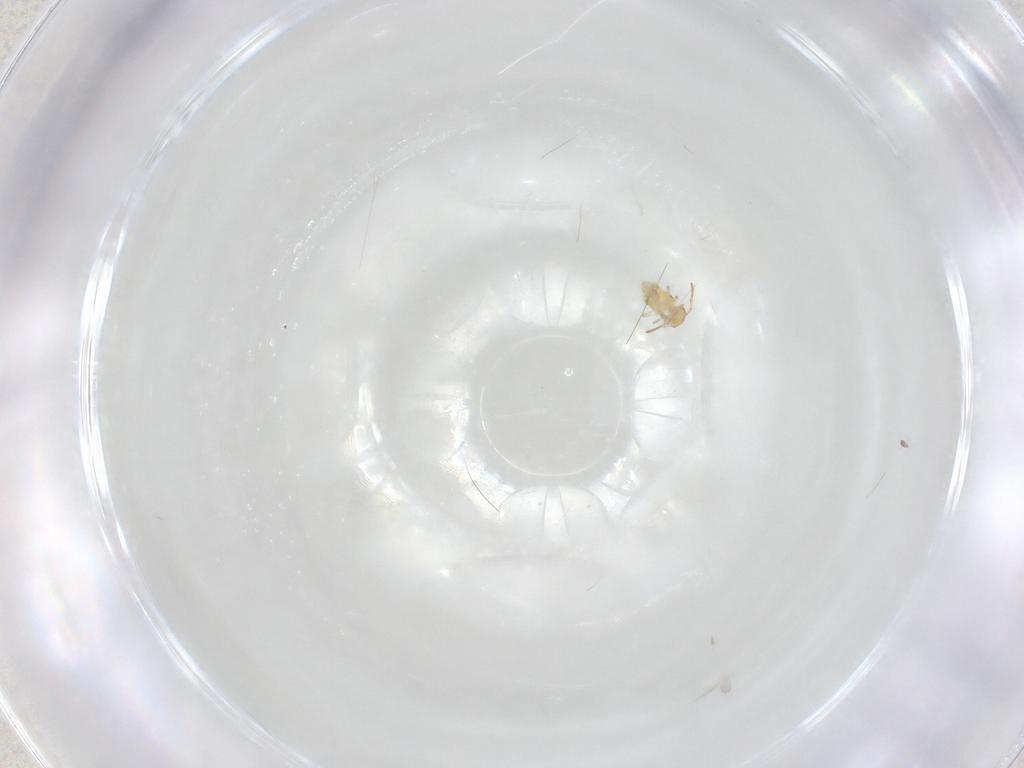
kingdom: Animalia
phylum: Arthropoda
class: Collembola
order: Symphypleona
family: Bourletiellidae
